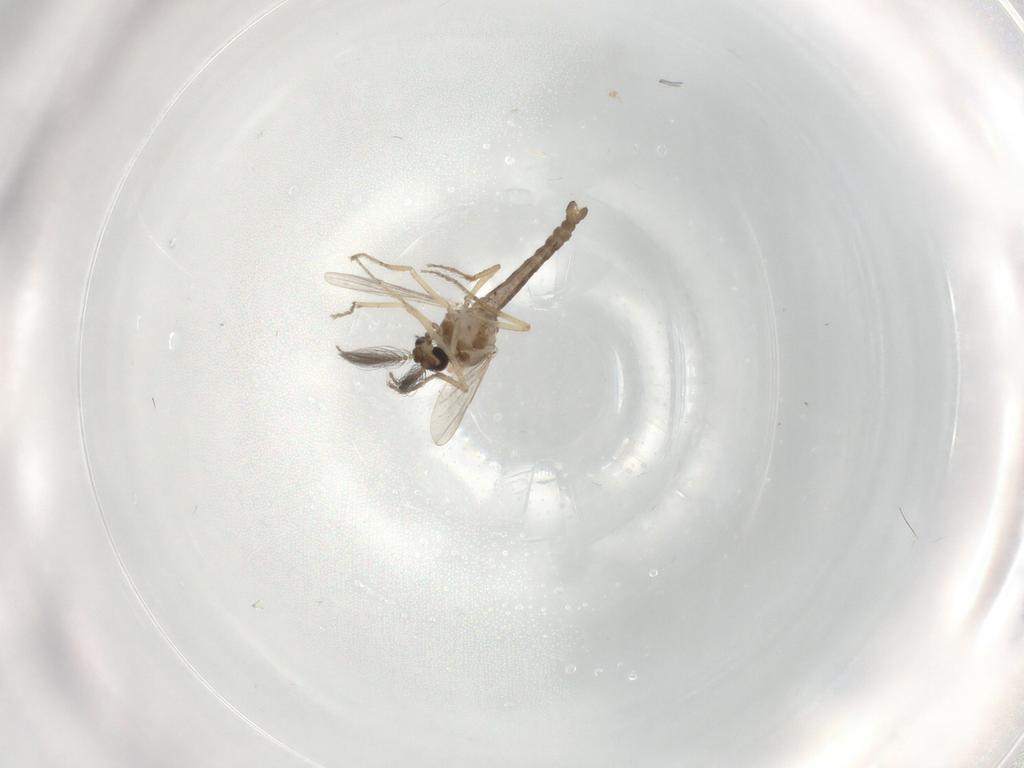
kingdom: Animalia
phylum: Arthropoda
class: Insecta
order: Diptera
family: Ceratopogonidae
